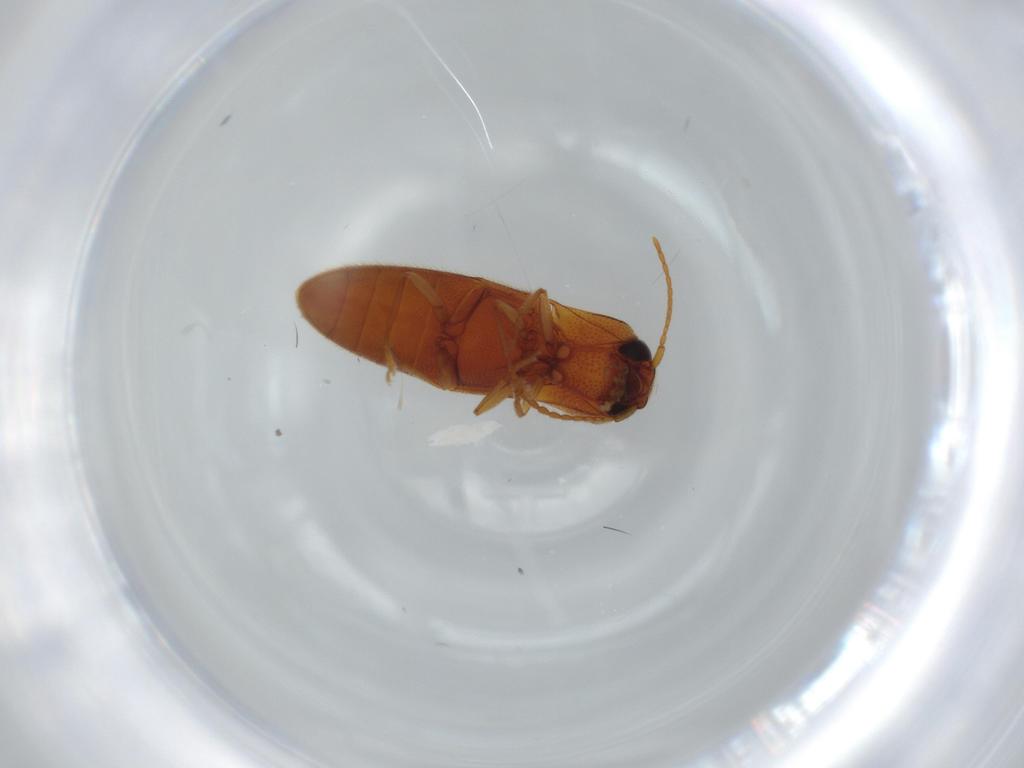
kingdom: Animalia
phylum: Arthropoda
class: Insecta
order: Coleoptera
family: Elateridae
